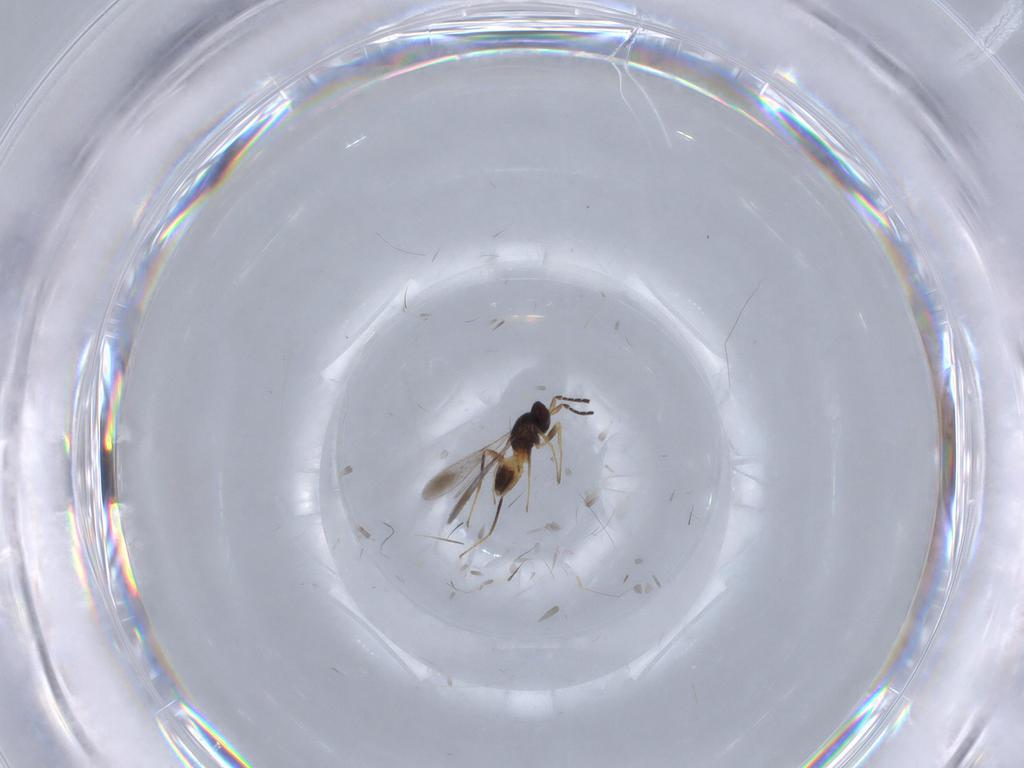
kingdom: Animalia
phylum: Arthropoda
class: Insecta
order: Hymenoptera
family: Mymaridae
